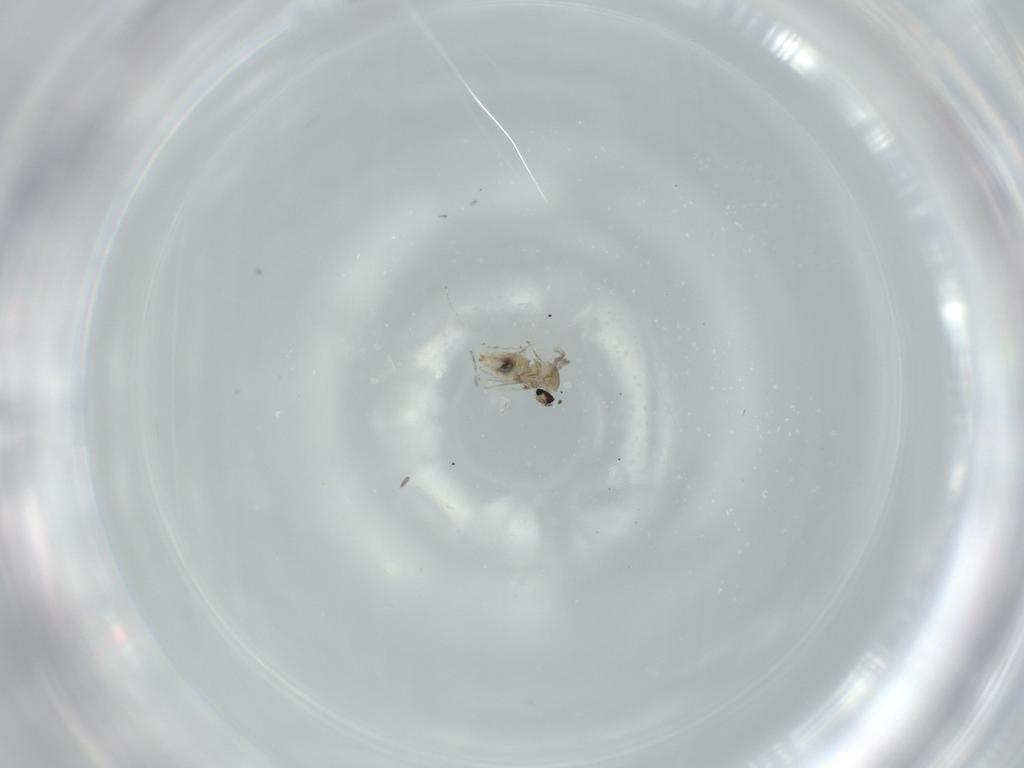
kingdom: Animalia
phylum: Arthropoda
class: Insecta
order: Diptera
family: Cecidomyiidae
